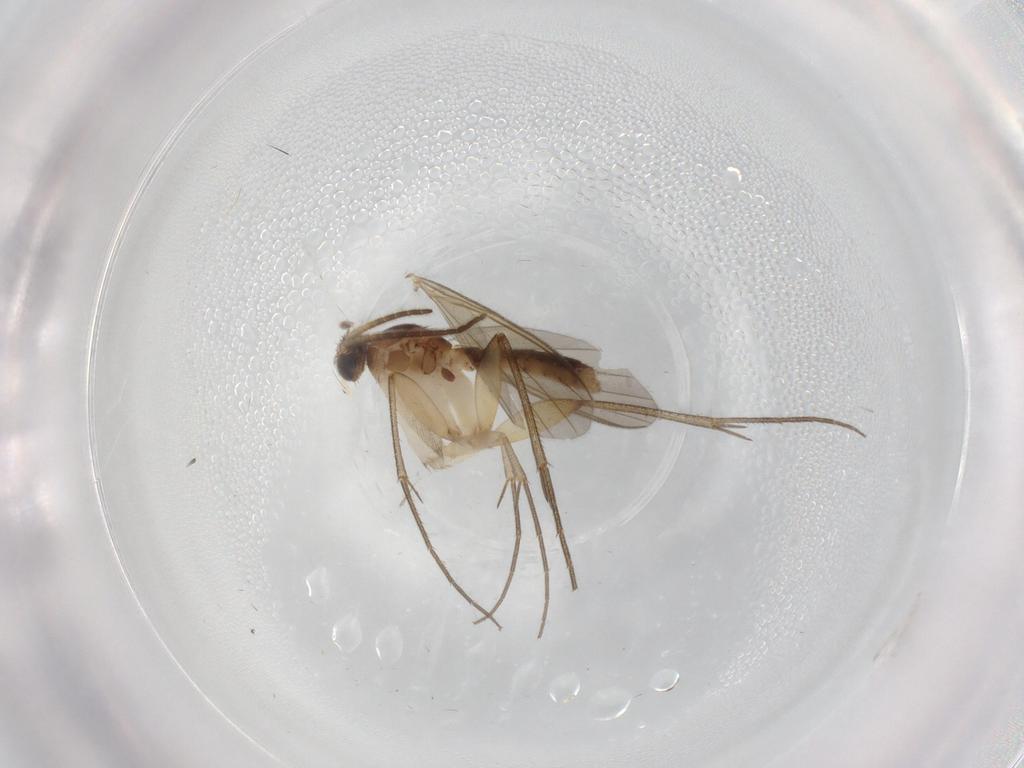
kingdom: Animalia
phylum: Arthropoda
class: Insecta
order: Diptera
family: Mycetophilidae
